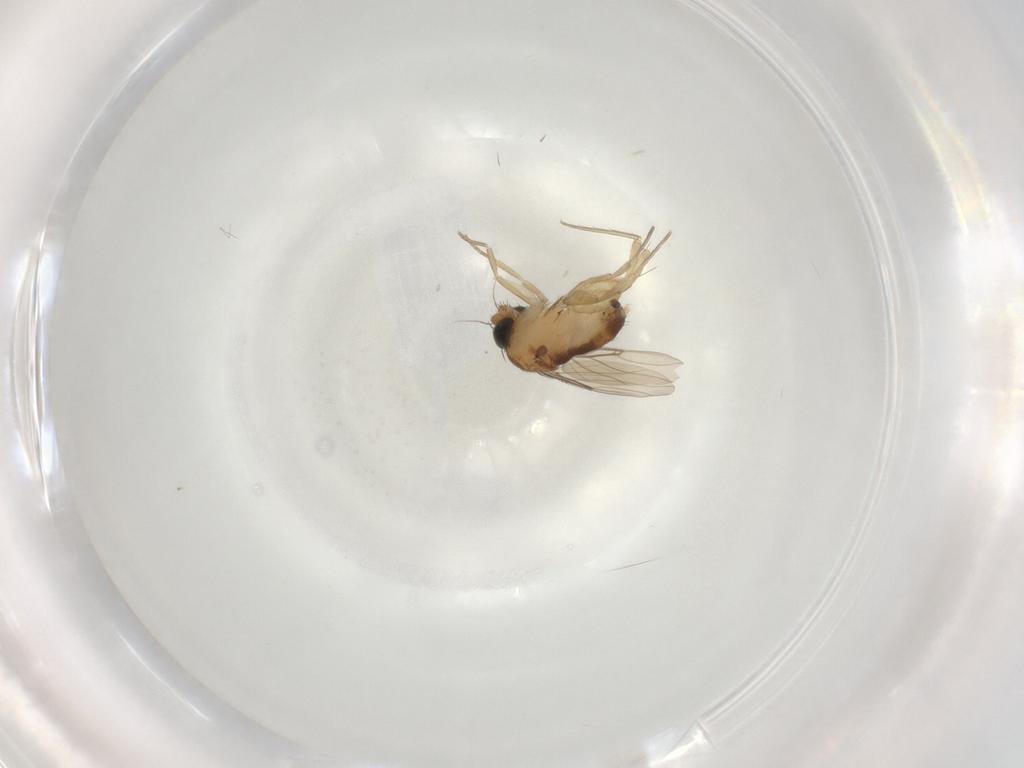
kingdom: Animalia
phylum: Arthropoda
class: Insecta
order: Diptera
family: Phoridae
